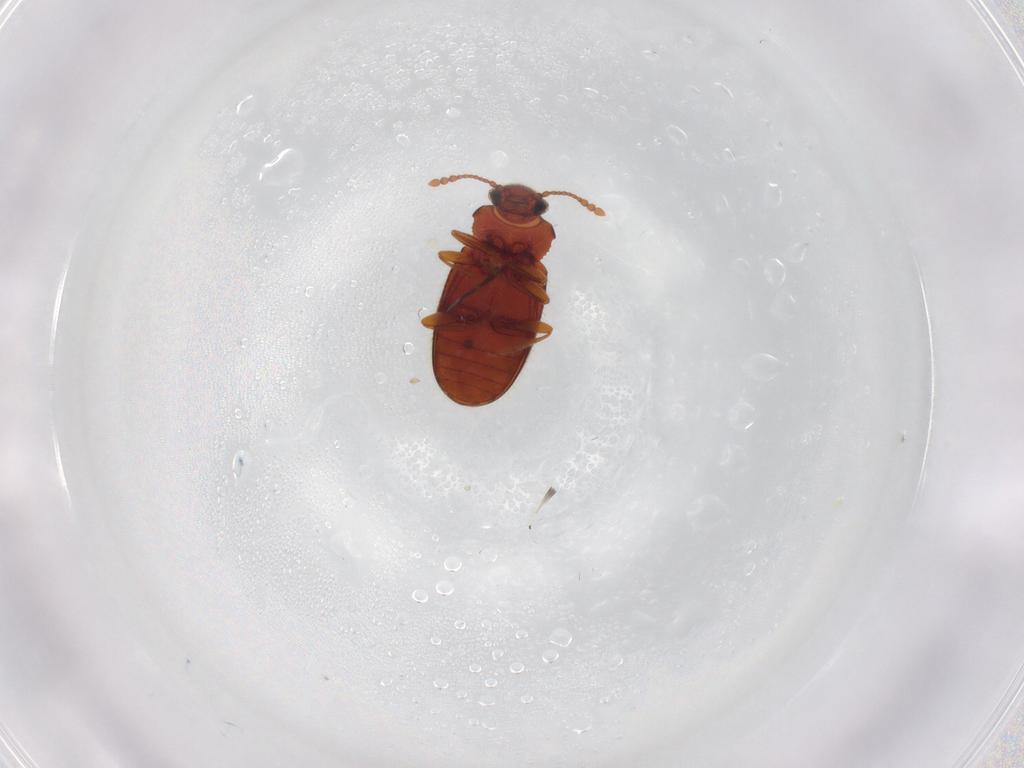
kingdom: Animalia
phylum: Arthropoda
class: Insecta
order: Coleoptera
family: Cryptophagidae
